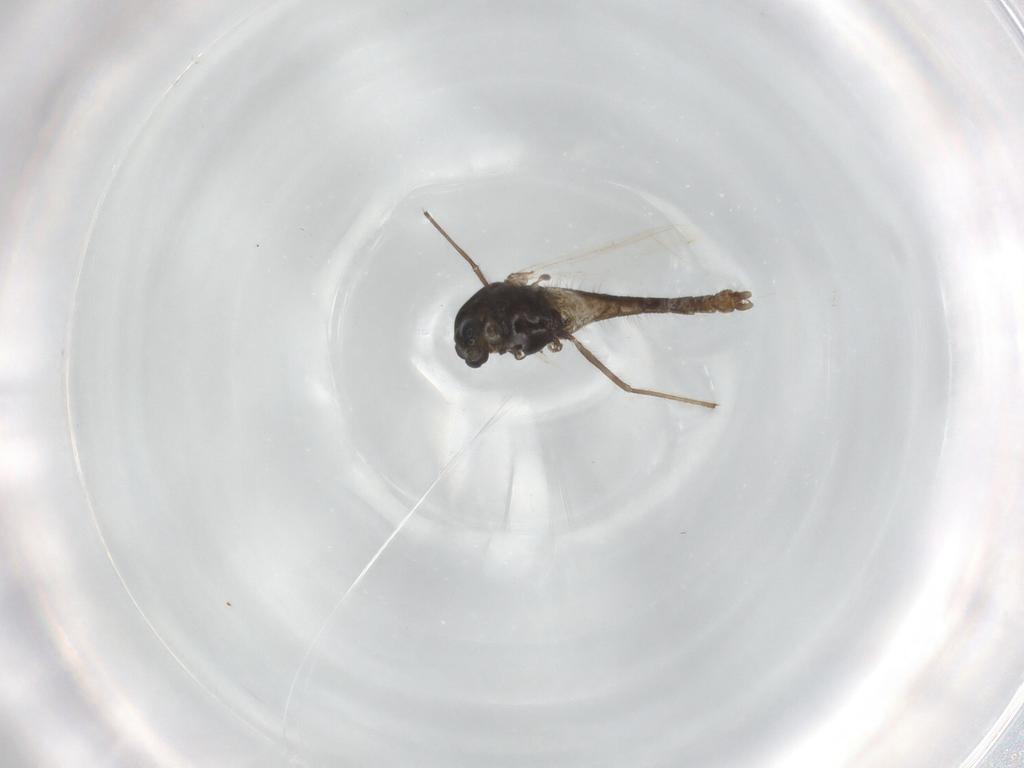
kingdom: Animalia
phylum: Arthropoda
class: Insecta
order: Diptera
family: Chironomidae
